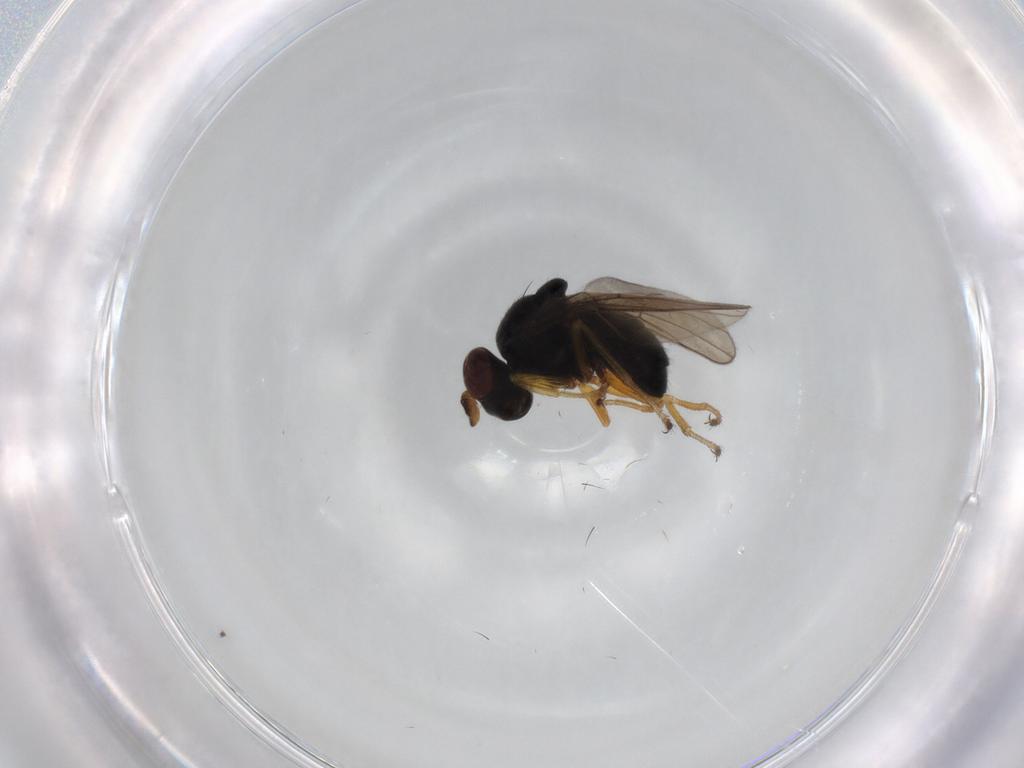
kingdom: Animalia
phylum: Arthropoda
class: Insecta
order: Diptera
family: Ephydridae
